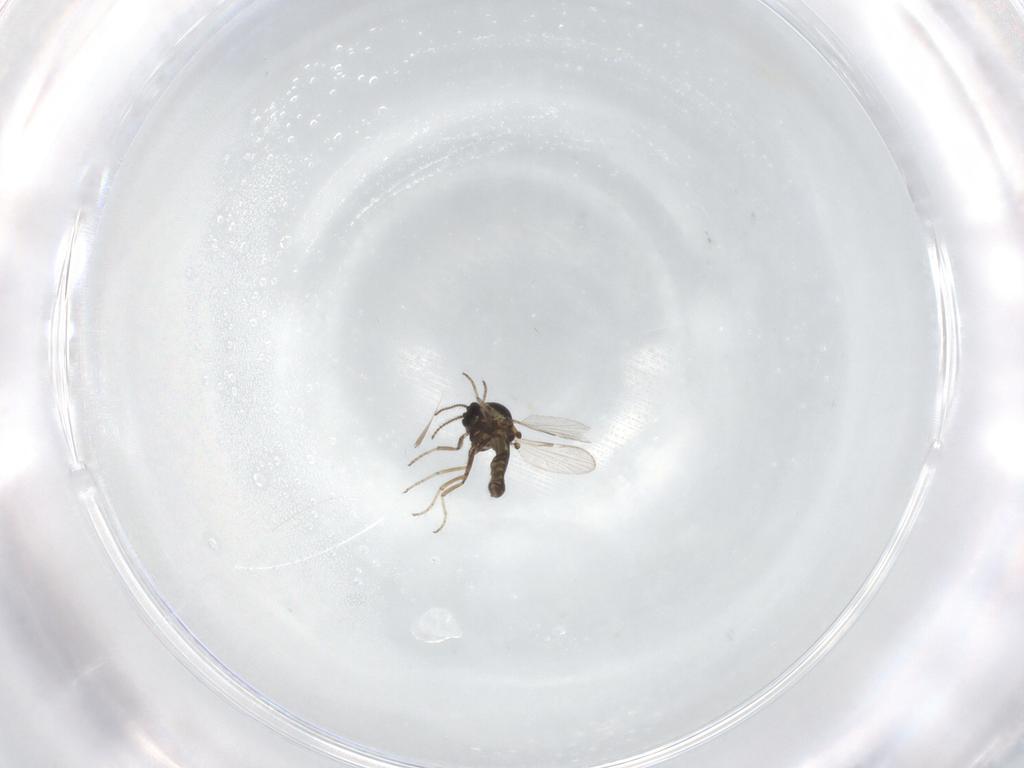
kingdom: Animalia
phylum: Arthropoda
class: Insecta
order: Diptera
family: Ceratopogonidae
